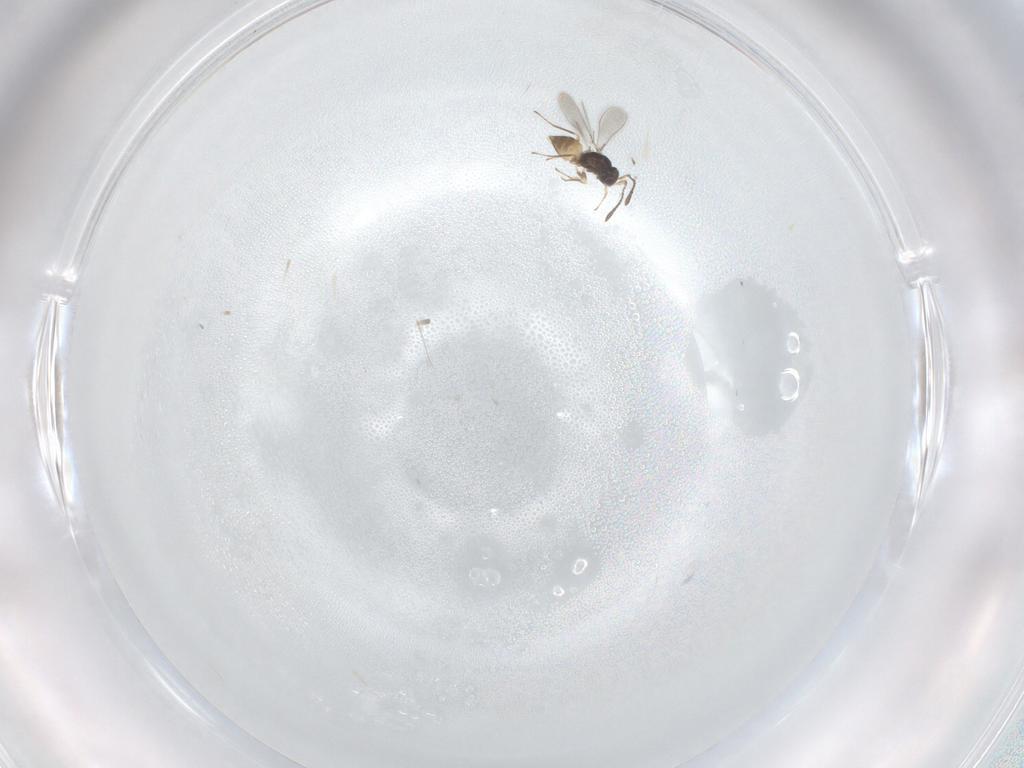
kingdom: Animalia
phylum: Arthropoda
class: Insecta
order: Hymenoptera
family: Mymaridae
